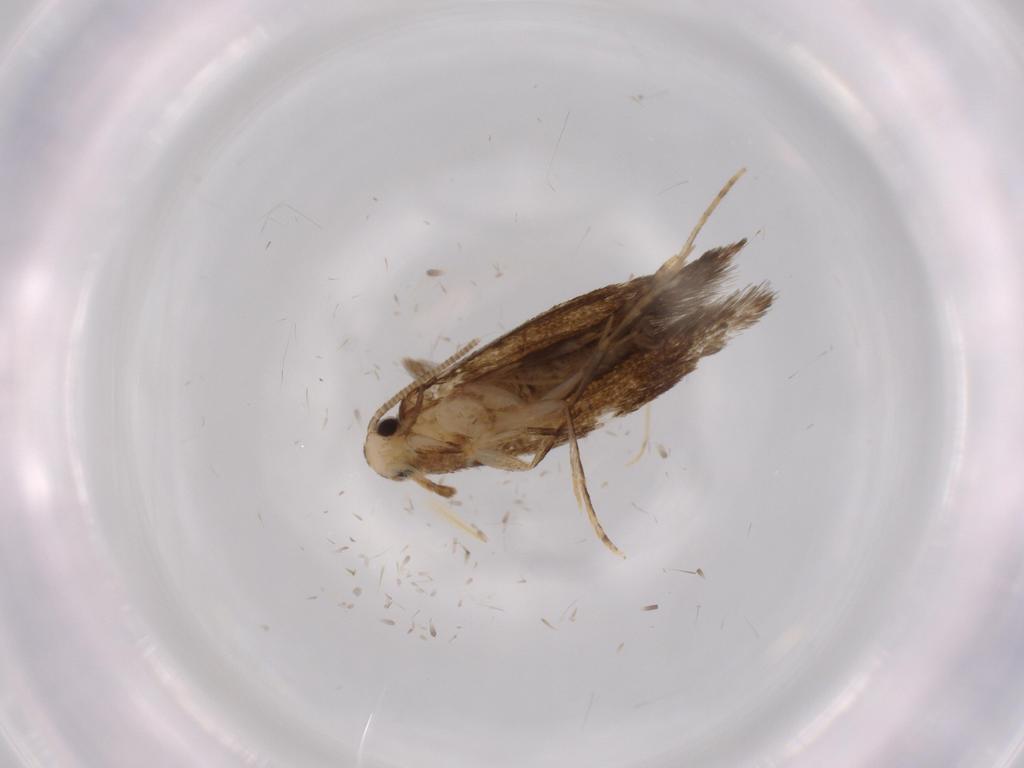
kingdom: Animalia
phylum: Arthropoda
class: Insecta
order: Lepidoptera
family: Tineidae
